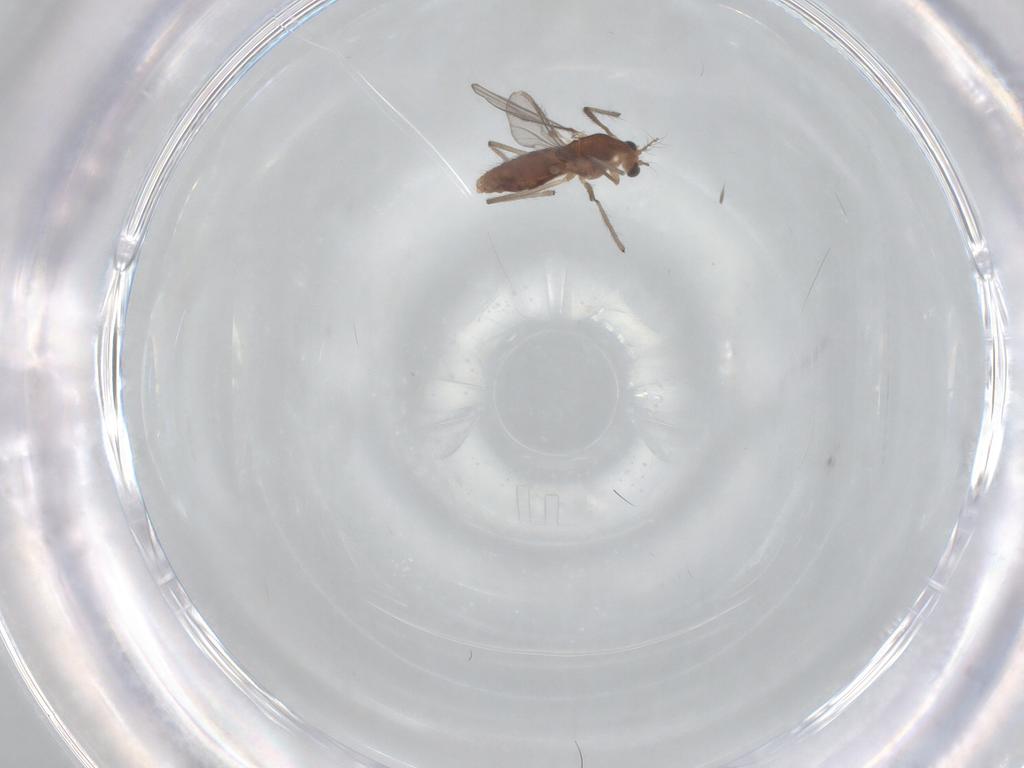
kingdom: Animalia
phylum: Arthropoda
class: Insecta
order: Diptera
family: Chironomidae
